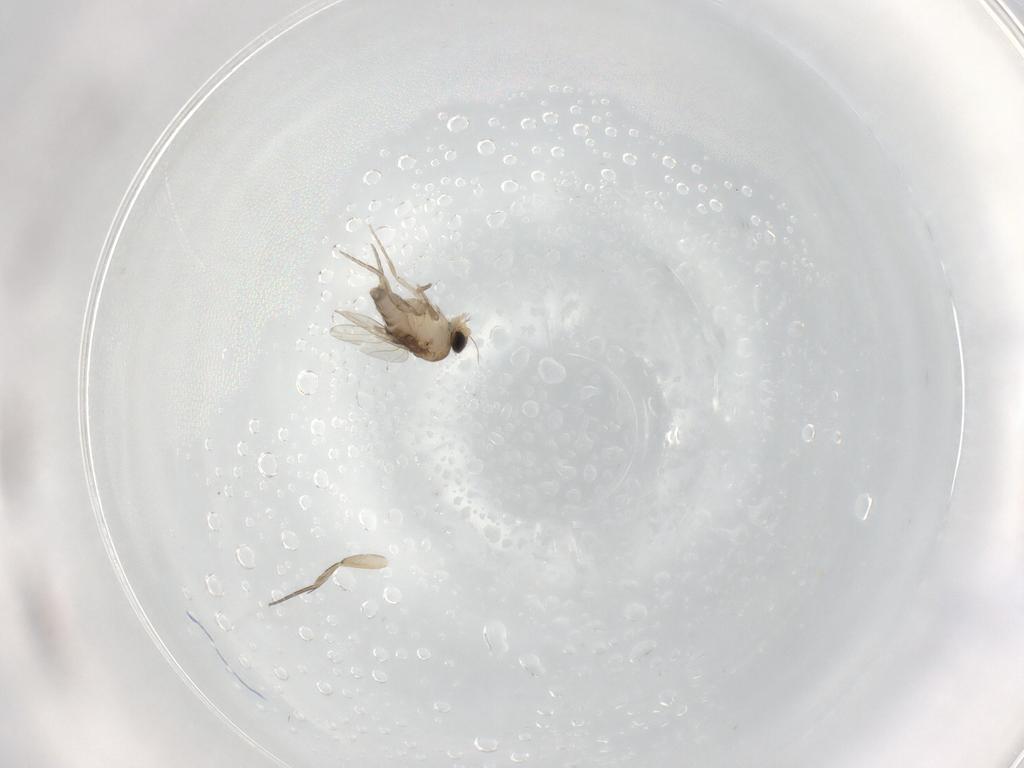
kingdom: Animalia
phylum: Arthropoda
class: Insecta
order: Diptera
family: Phoridae
